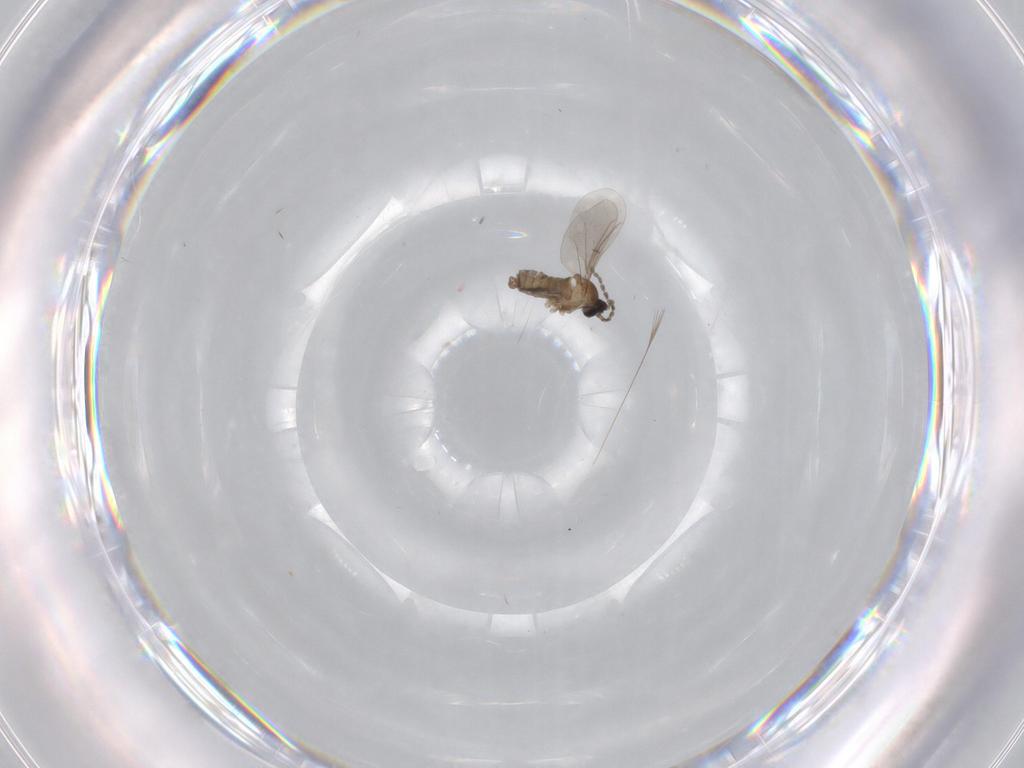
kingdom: Animalia
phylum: Arthropoda
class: Insecta
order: Diptera
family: Cecidomyiidae
